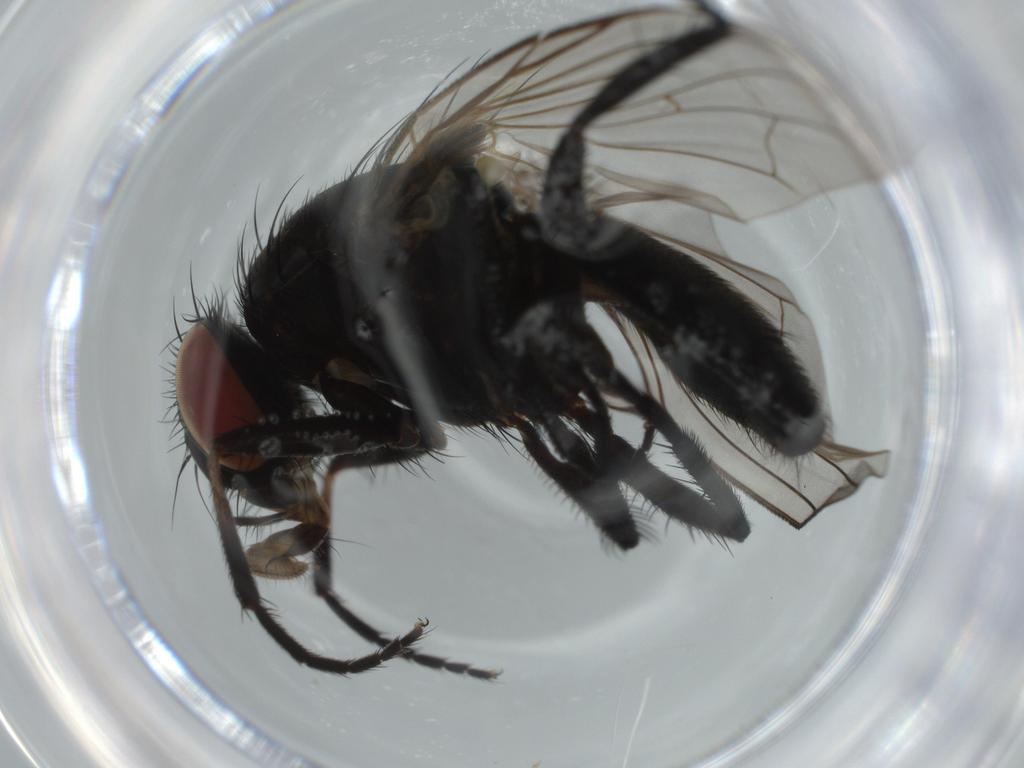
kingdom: Animalia
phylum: Arthropoda
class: Insecta
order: Diptera
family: Fannia
